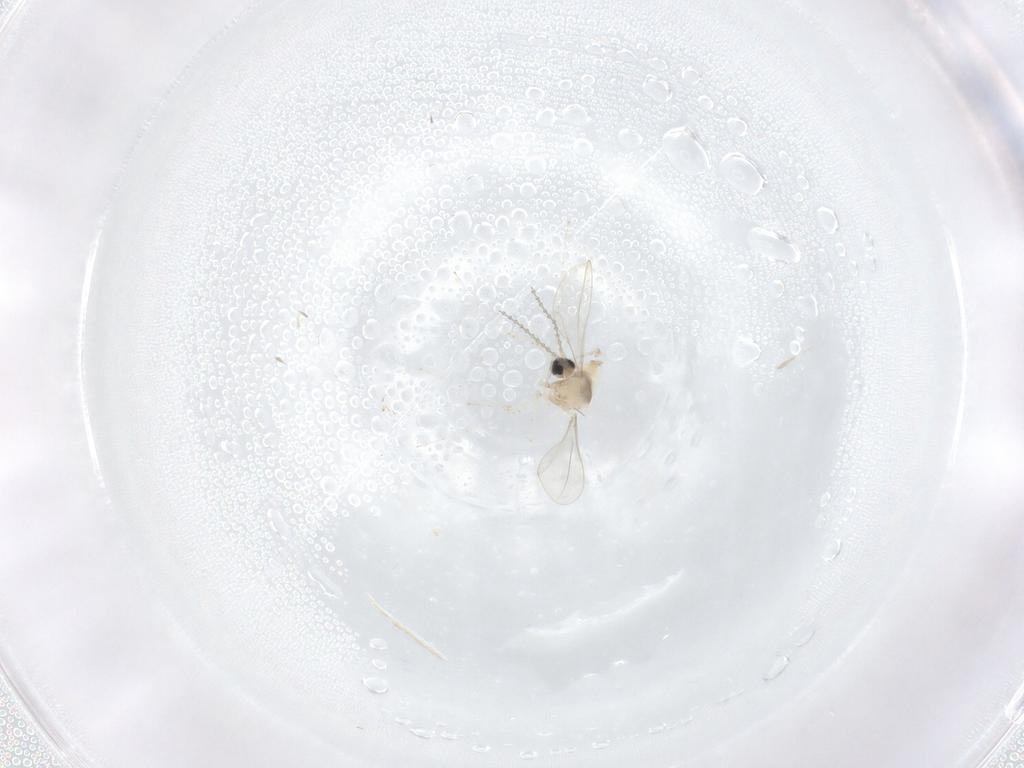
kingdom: Animalia
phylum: Arthropoda
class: Insecta
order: Diptera
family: Cecidomyiidae
